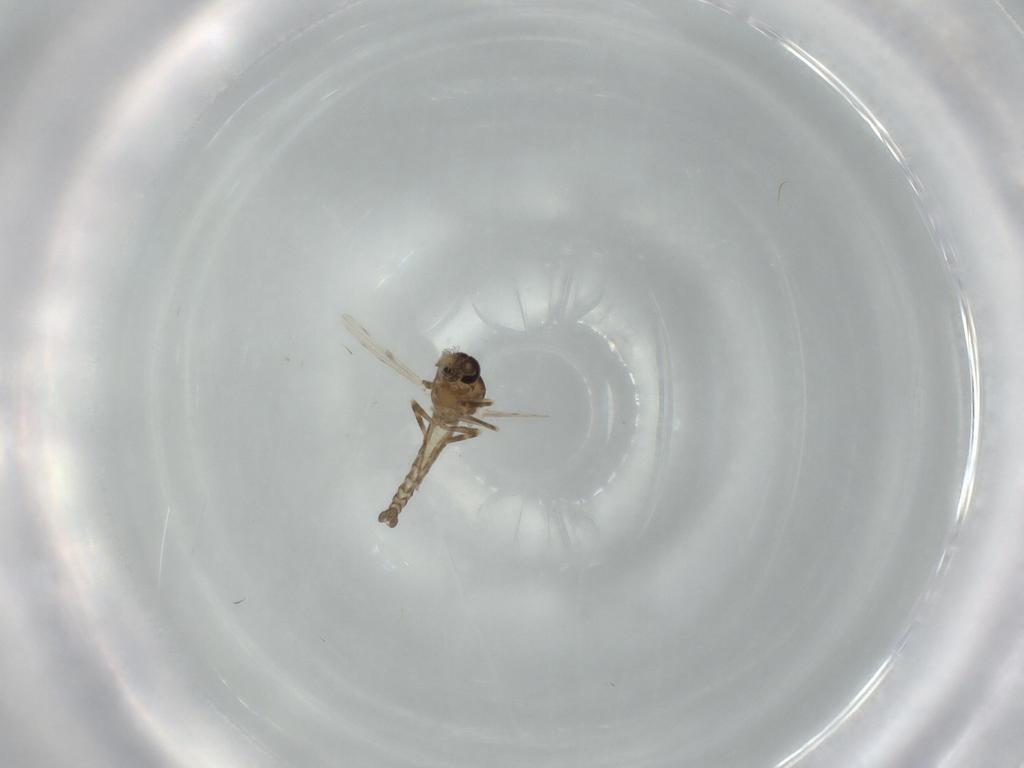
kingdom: Animalia
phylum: Arthropoda
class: Insecta
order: Diptera
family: Ceratopogonidae
